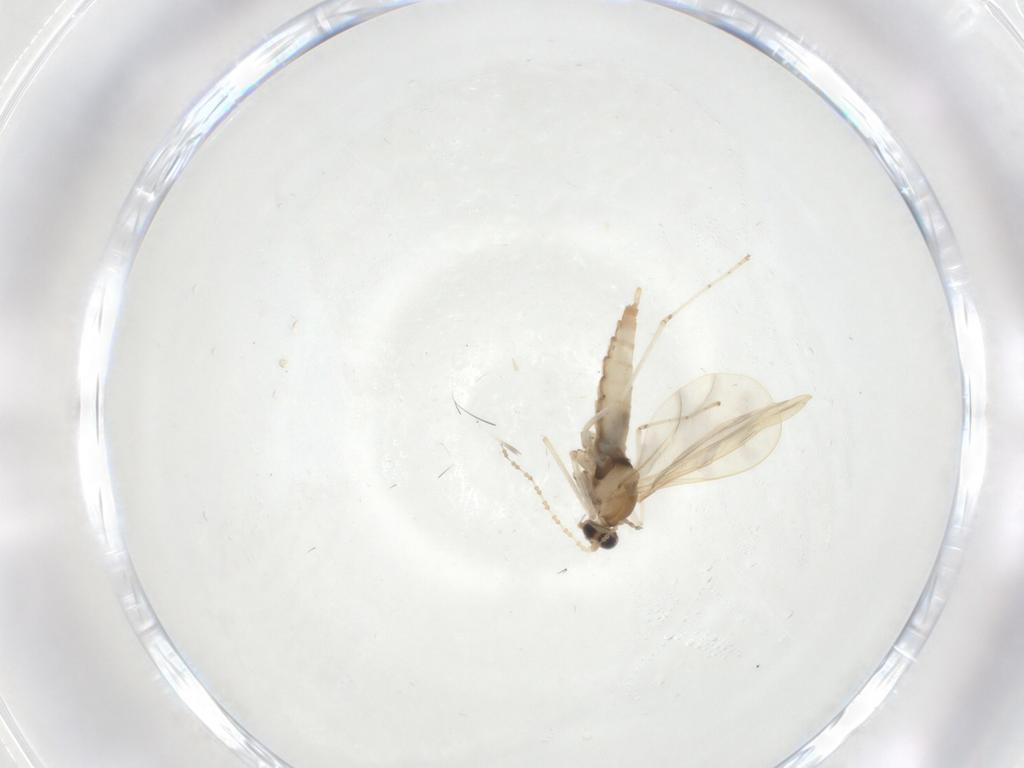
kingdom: Animalia
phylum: Arthropoda
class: Insecta
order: Diptera
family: Cecidomyiidae
